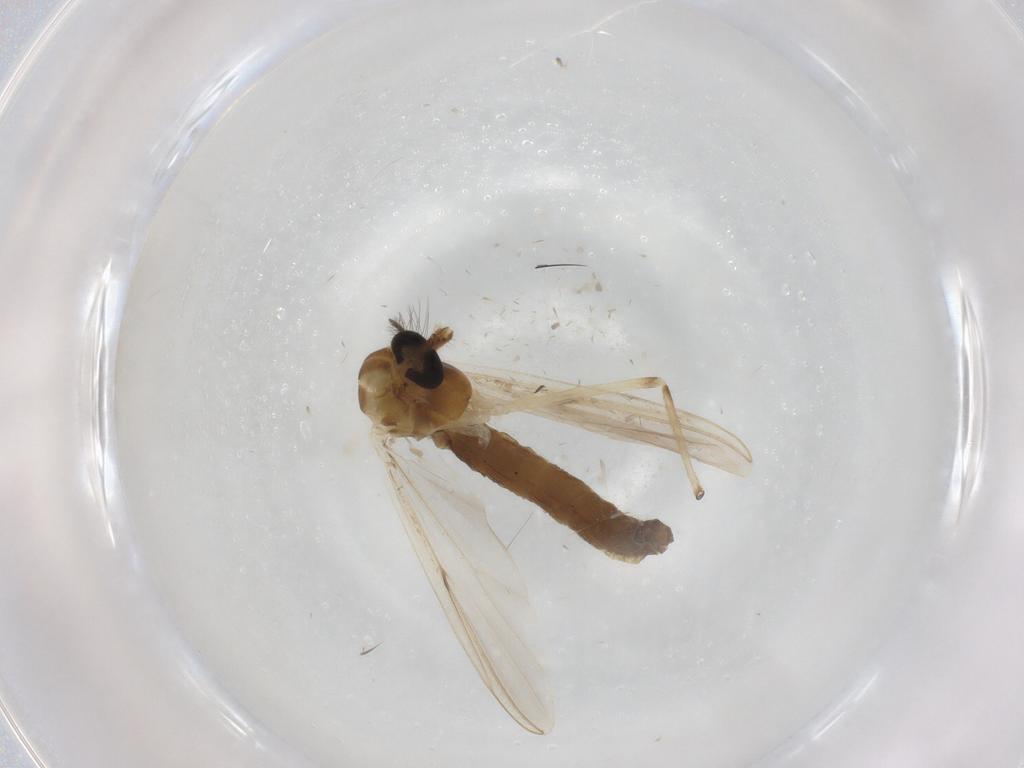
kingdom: Animalia
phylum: Arthropoda
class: Insecta
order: Diptera
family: Chironomidae
